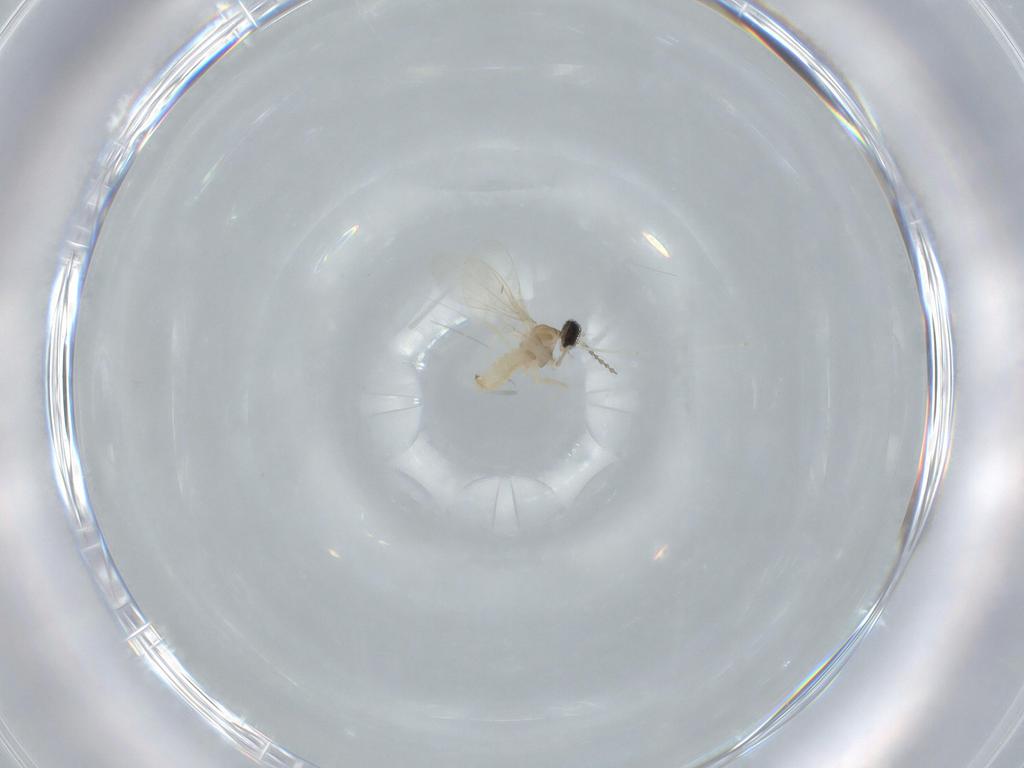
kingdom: Animalia
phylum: Arthropoda
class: Insecta
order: Diptera
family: Cecidomyiidae
